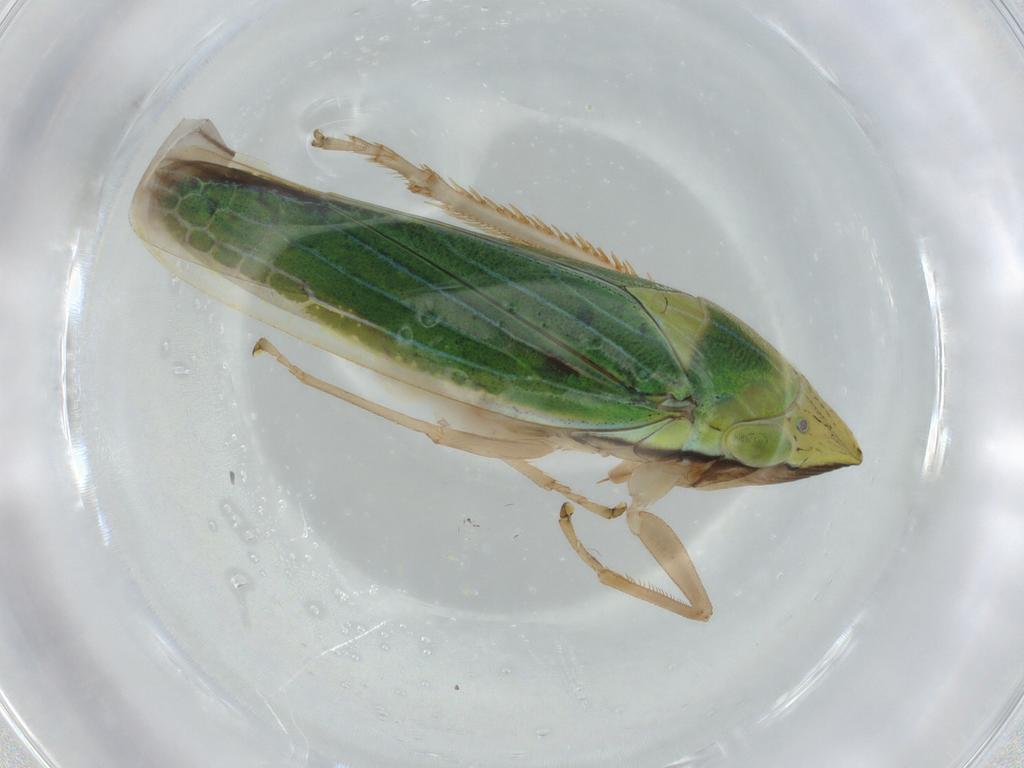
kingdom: Animalia
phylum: Arthropoda
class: Insecta
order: Hemiptera
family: Cicadellidae
